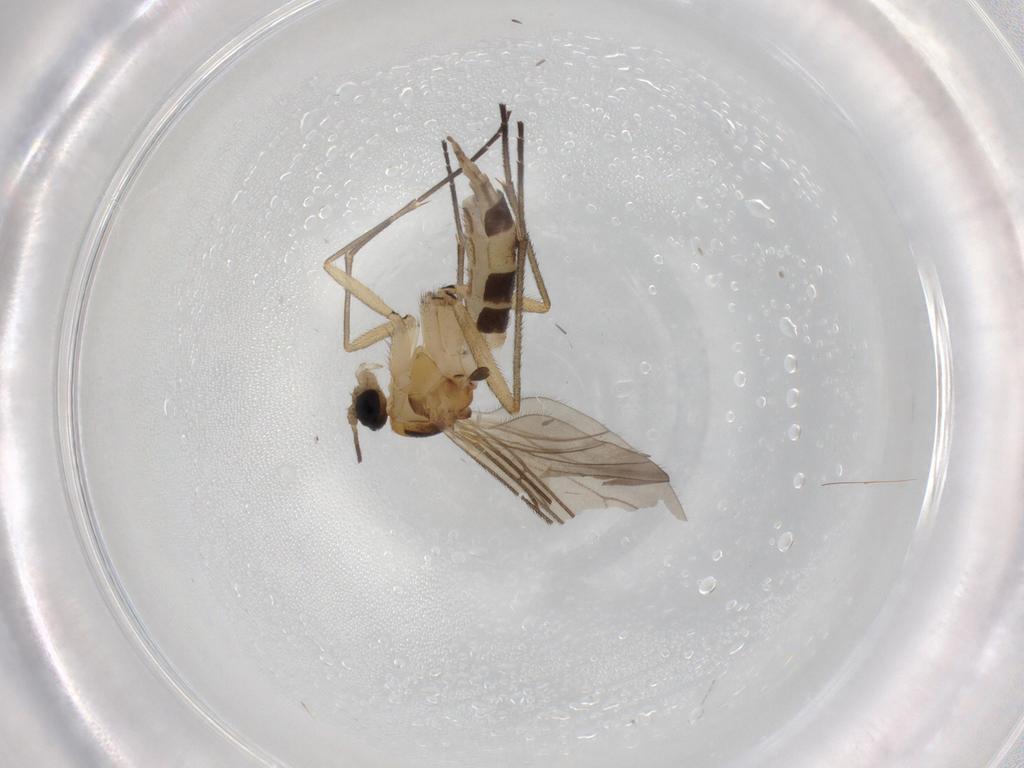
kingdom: Animalia
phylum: Arthropoda
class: Insecta
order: Diptera
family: Sciaridae
